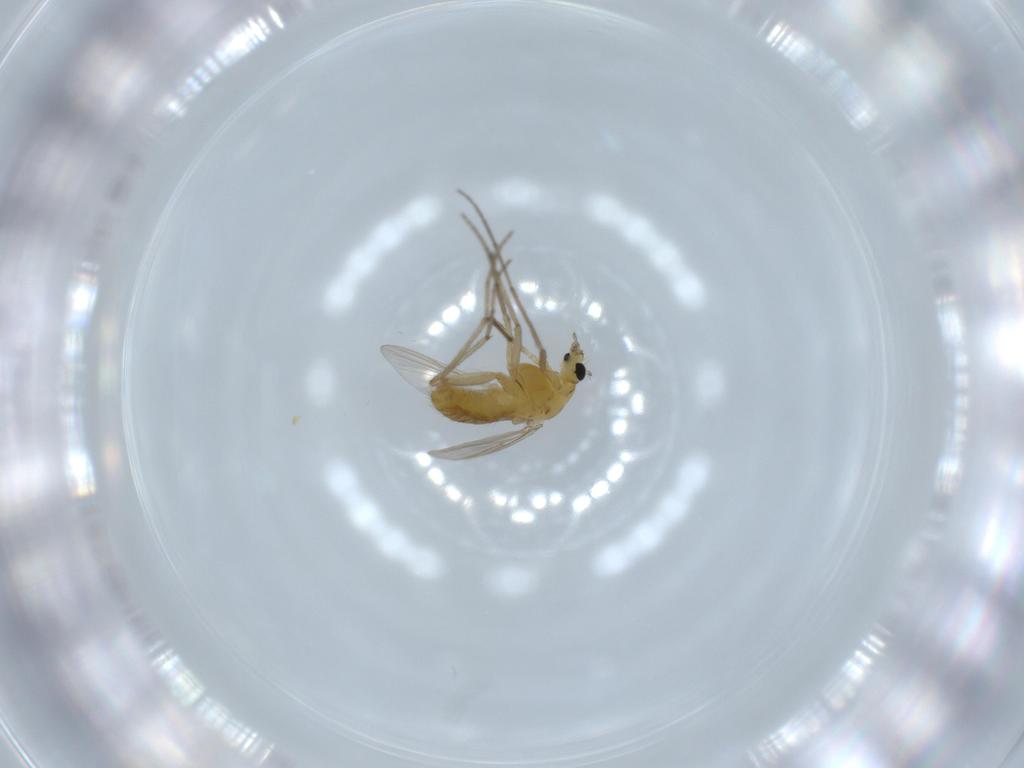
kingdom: Animalia
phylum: Arthropoda
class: Insecta
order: Diptera
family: Chironomidae
